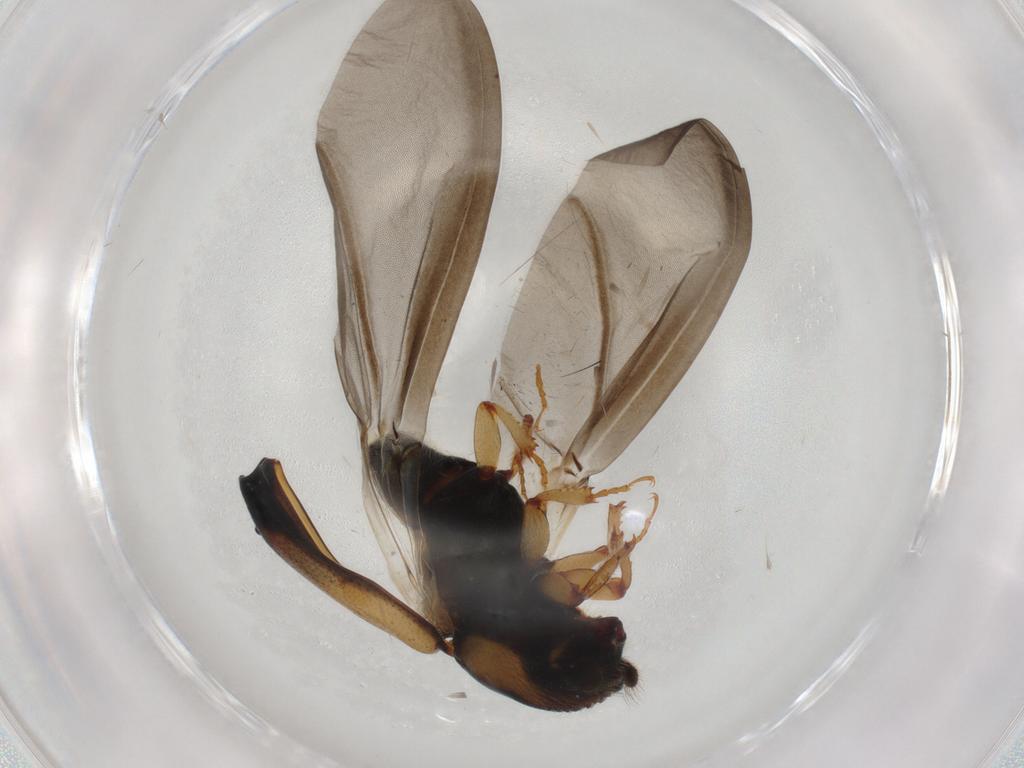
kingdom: Animalia
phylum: Arthropoda
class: Insecta
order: Coleoptera
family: Curculionidae
